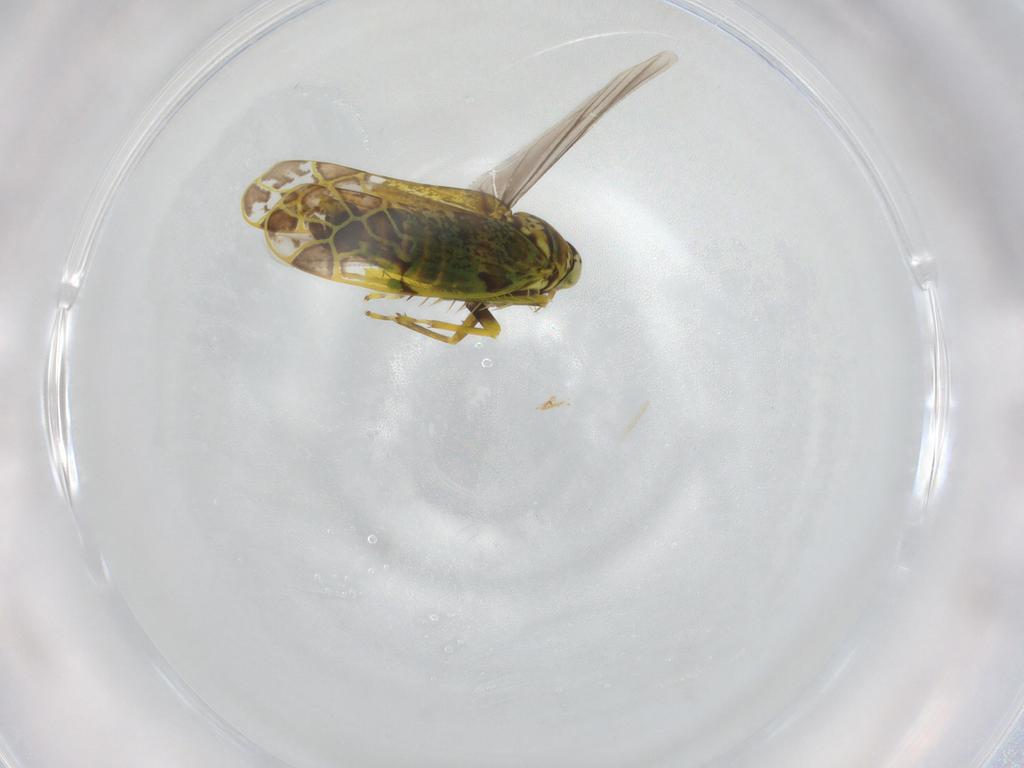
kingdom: Animalia
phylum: Arthropoda
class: Insecta
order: Hemiptera
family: Cicadellidae
